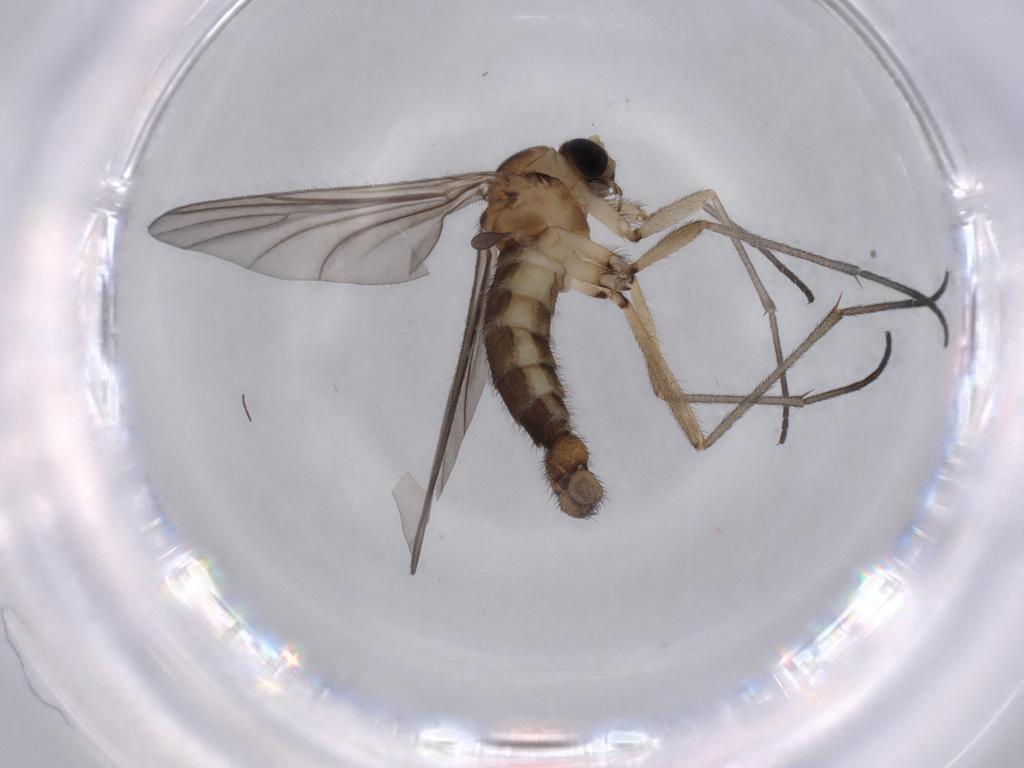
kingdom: Animalia
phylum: Arthropoda
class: Insecta
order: Diptera
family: Sciaridae
